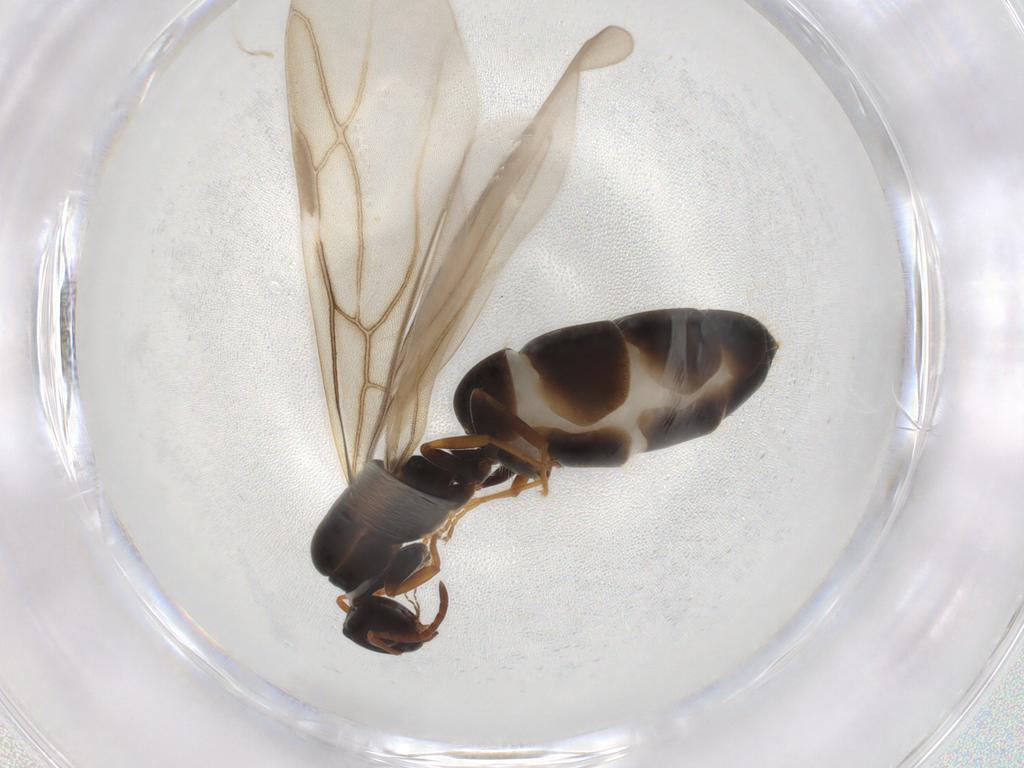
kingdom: Animalia
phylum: Arthropoda
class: Insecta
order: Hymenoptera
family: Formicidae
